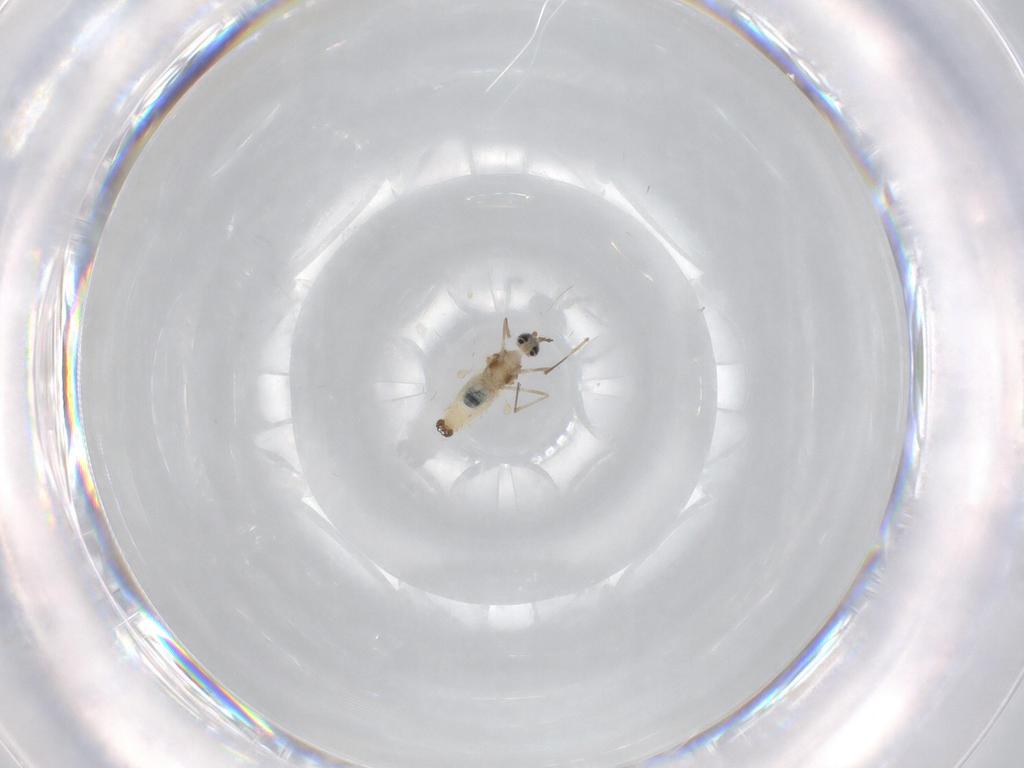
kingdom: Animalia
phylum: Arthropoda
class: Insecta
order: Diptera
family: Cecidomyiidae
